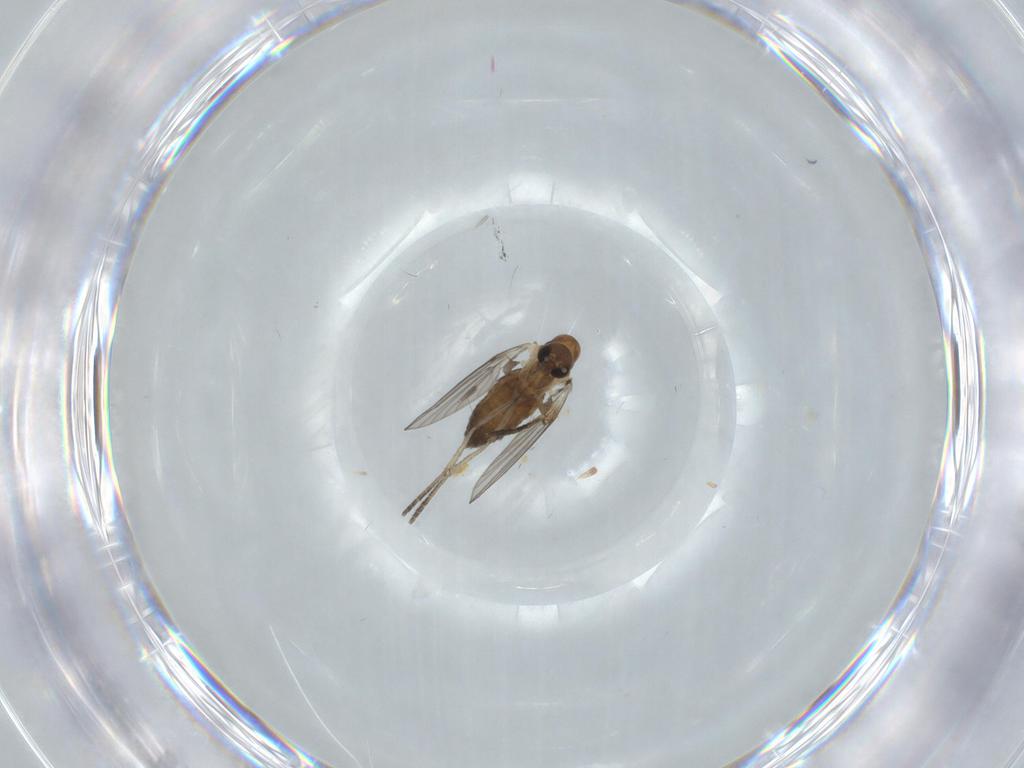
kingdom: Animalia
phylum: Arthropoda
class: Insecta
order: Diptera
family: Psychodidae
